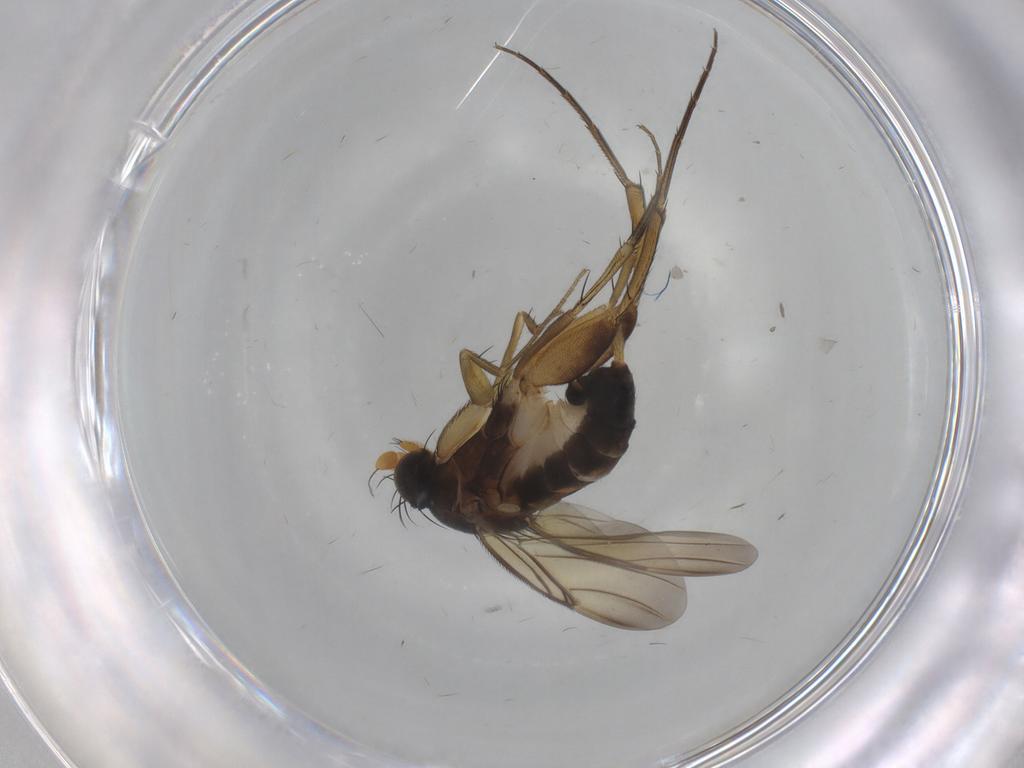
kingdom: Animalia
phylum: Arthropoda
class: Insecta
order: Diptera
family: Phoridae
